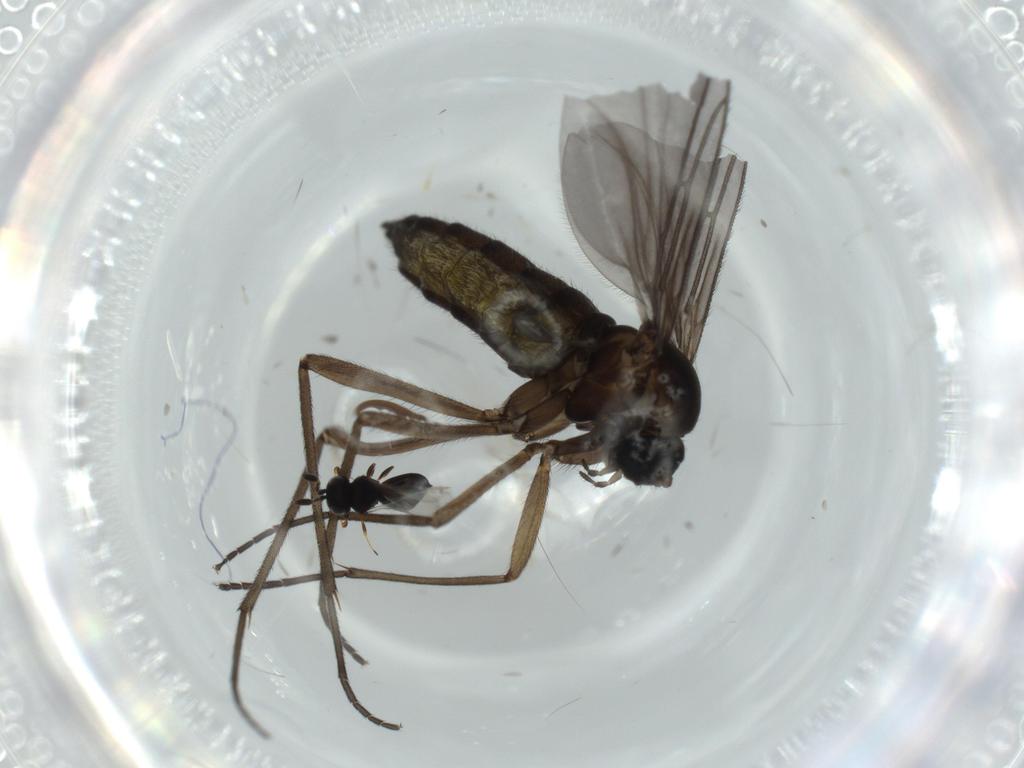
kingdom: Animalia
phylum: Arthropoda
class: Insecta
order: Diptera
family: Sciaridae
